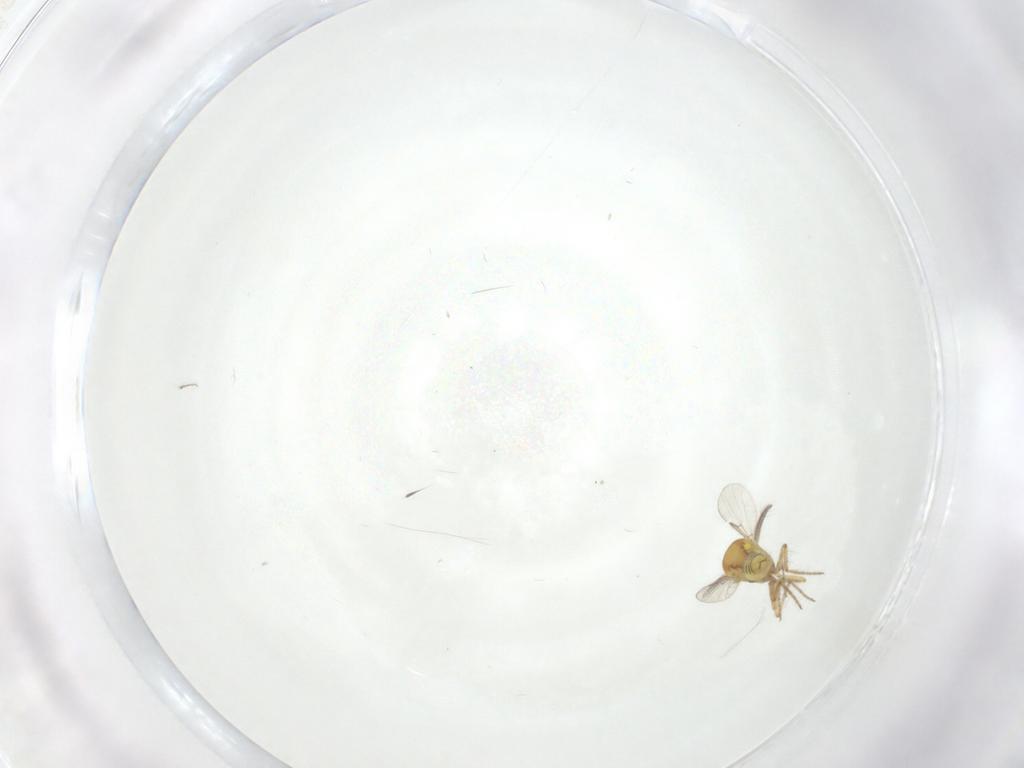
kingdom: Animalia
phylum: Arthropoda
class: Insecta
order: Diptera
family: Ceratopogonidae
